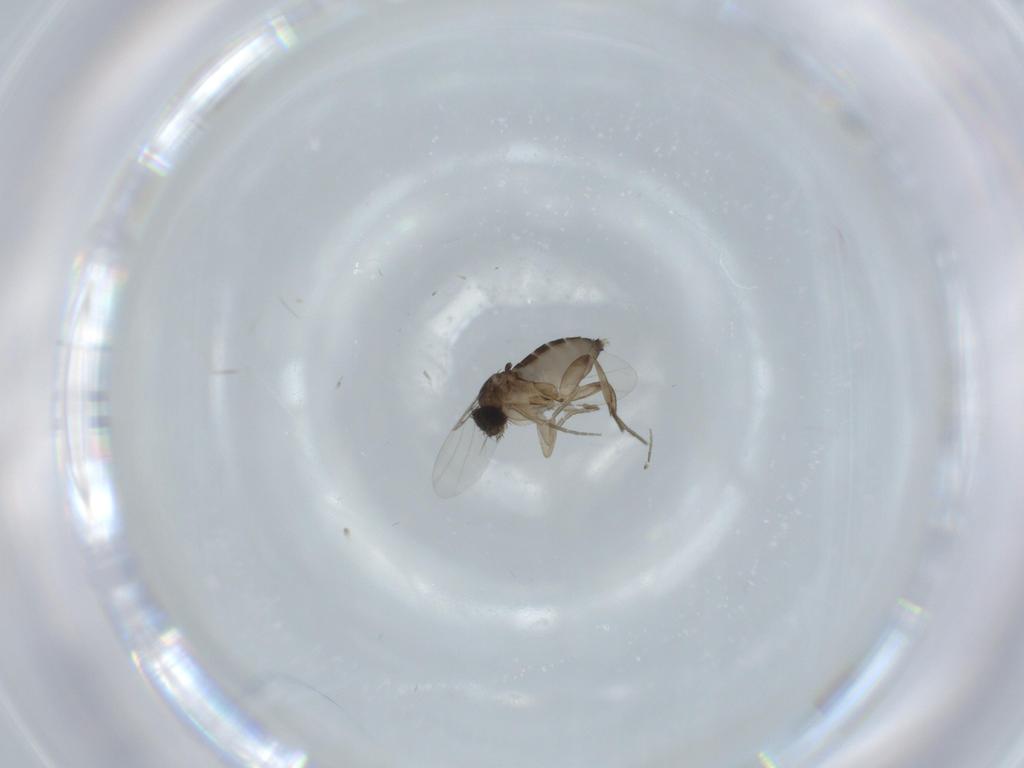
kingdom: Animalia
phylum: Arthropoda
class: Insecta
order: Diptera
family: Phoridae
